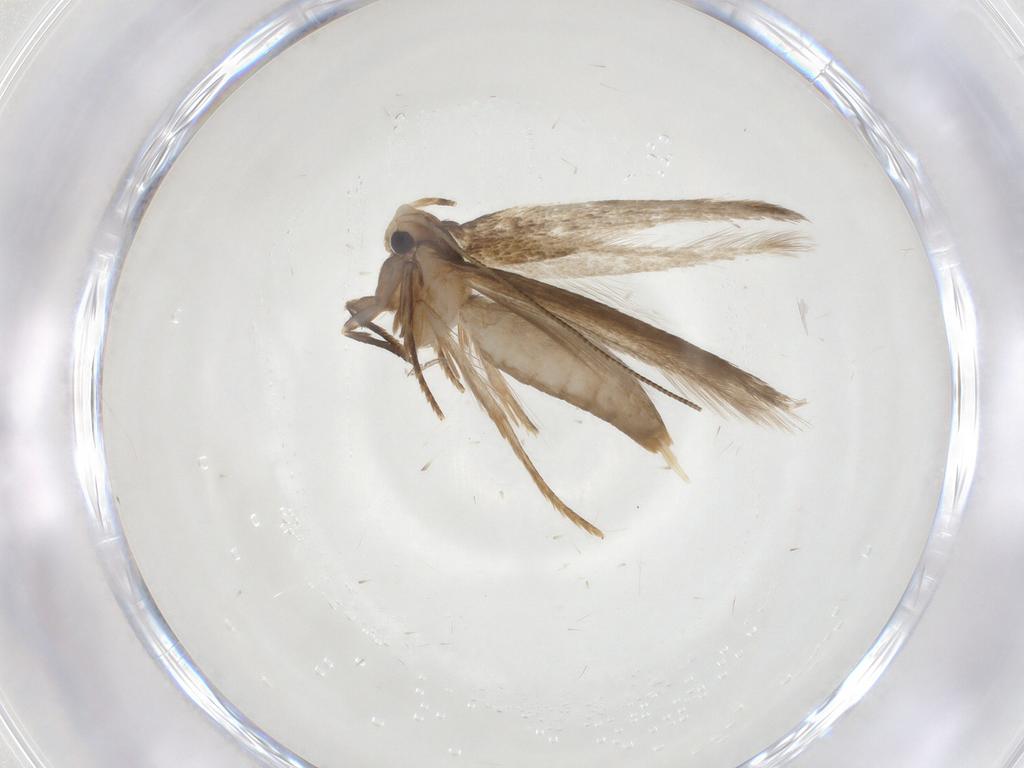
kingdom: Animalia
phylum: Arthropoda
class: Insecta
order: Lepidoptera
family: Tineidae
